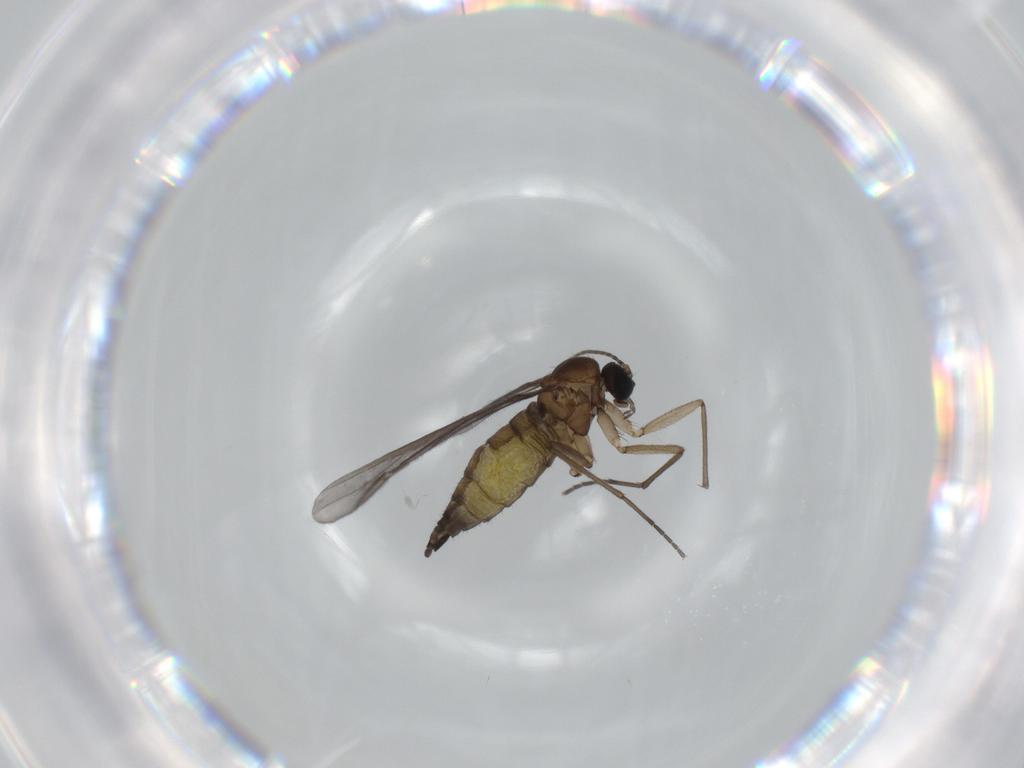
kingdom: Animalia
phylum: Arthropoda
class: Insecta
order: Diptera
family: Sciaridae
